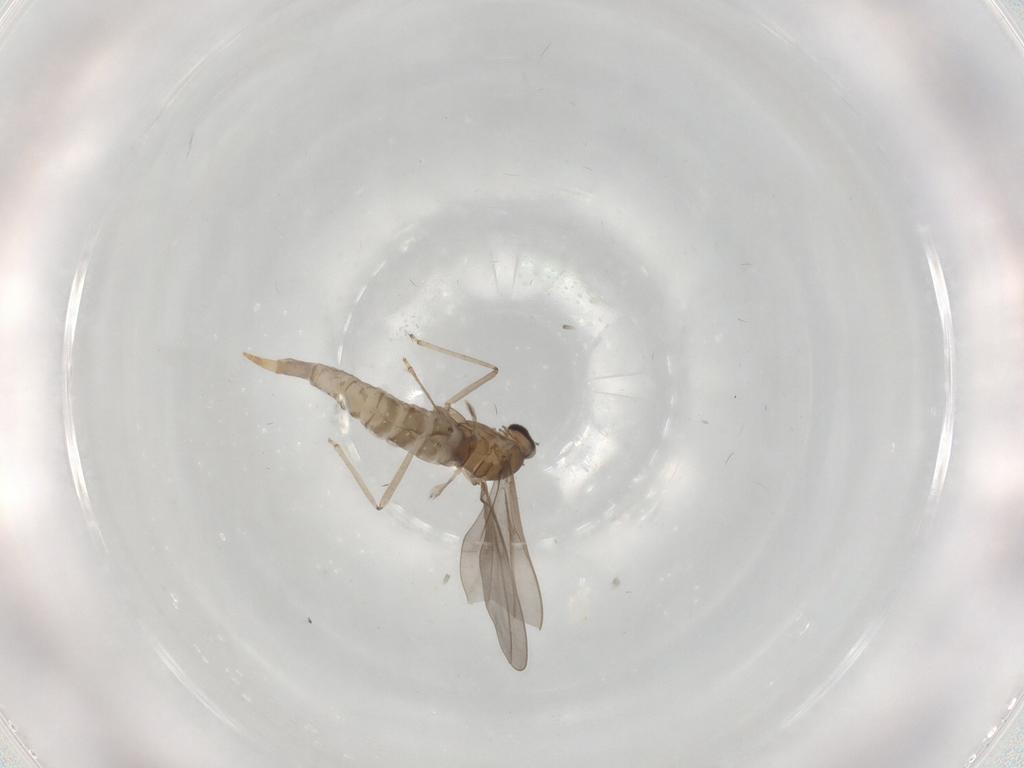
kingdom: Animalia
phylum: Arthropoda
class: Insecta
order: Diptera
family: Cecidomyiidae
